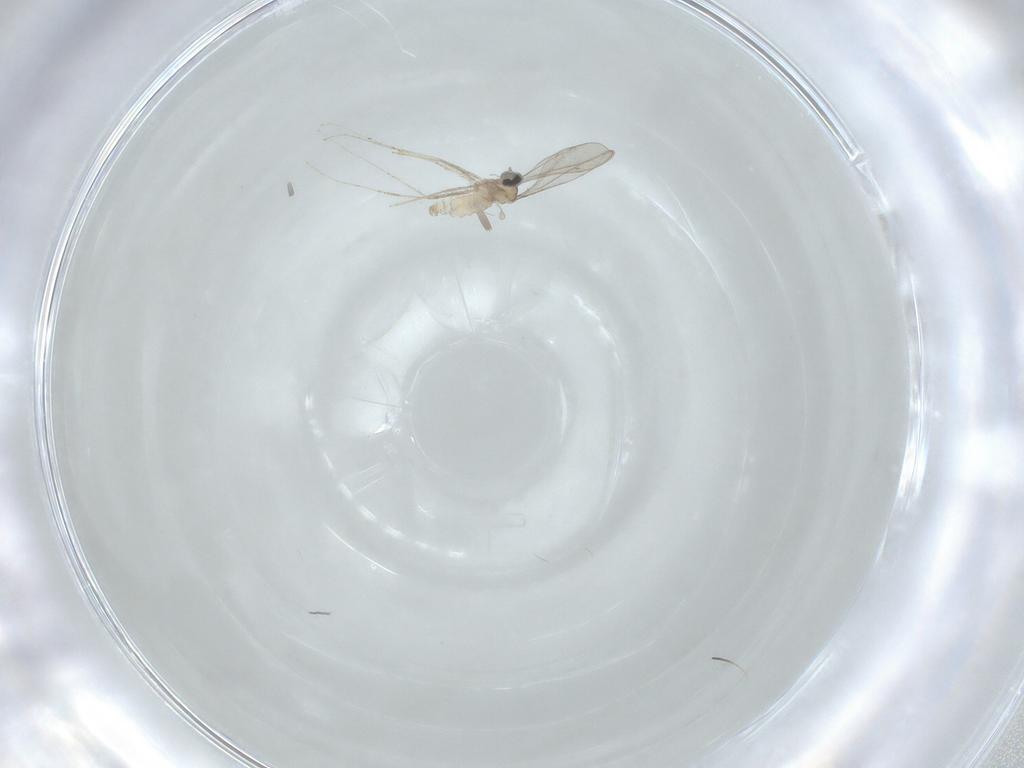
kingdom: Animalia
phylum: Arthropoda
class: Insecta
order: Diptera
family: Cecidomyiidae
